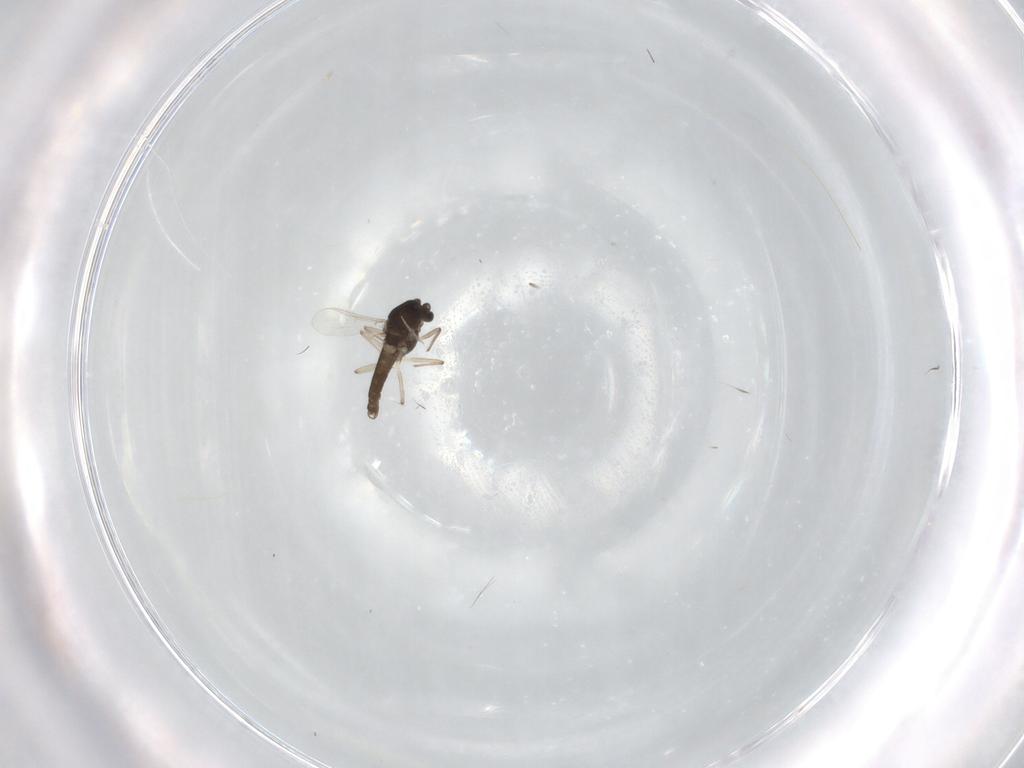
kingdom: Animalia
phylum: Arthropoda
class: Insecta
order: Diptera
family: Chironomidae
